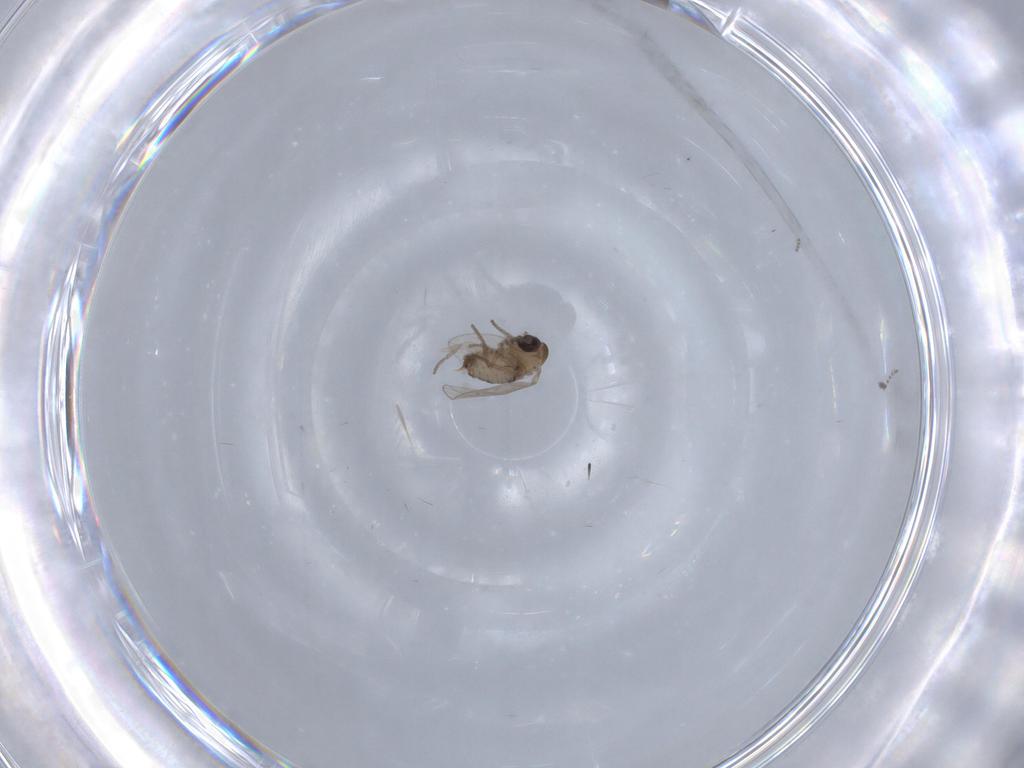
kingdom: Animalia
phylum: Arthropoda
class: Insecta
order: Diptera
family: Psychodidae
